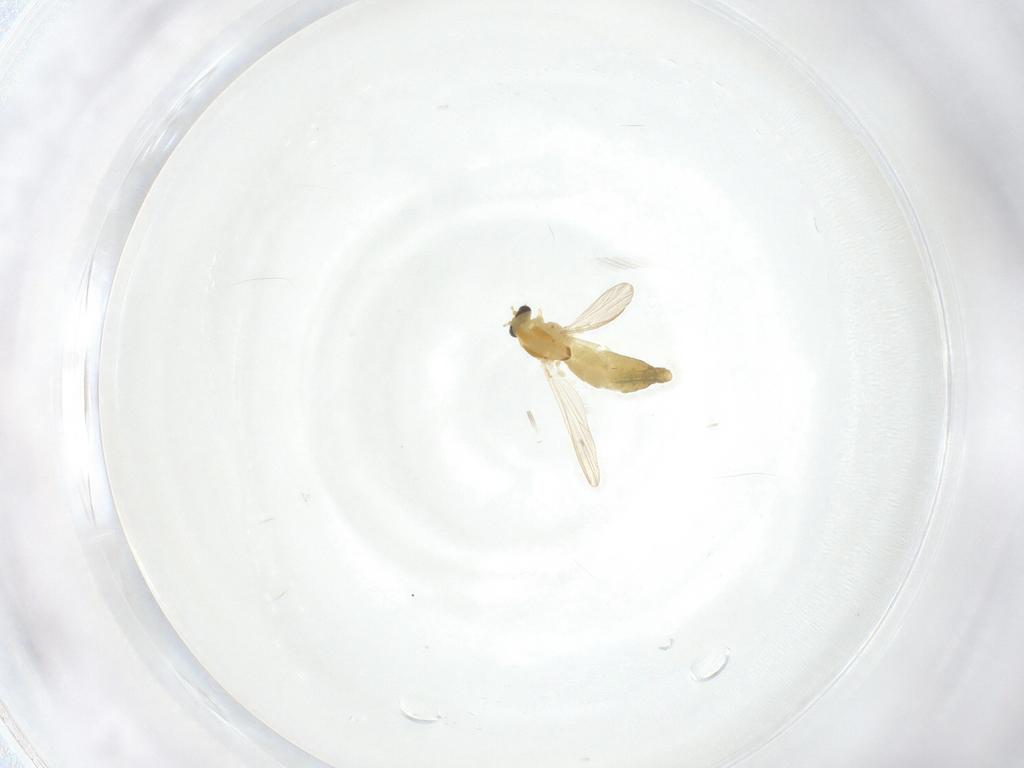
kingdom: Animalia
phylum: Arthropoda
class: Insecta
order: Diptera
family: Chironomidae
